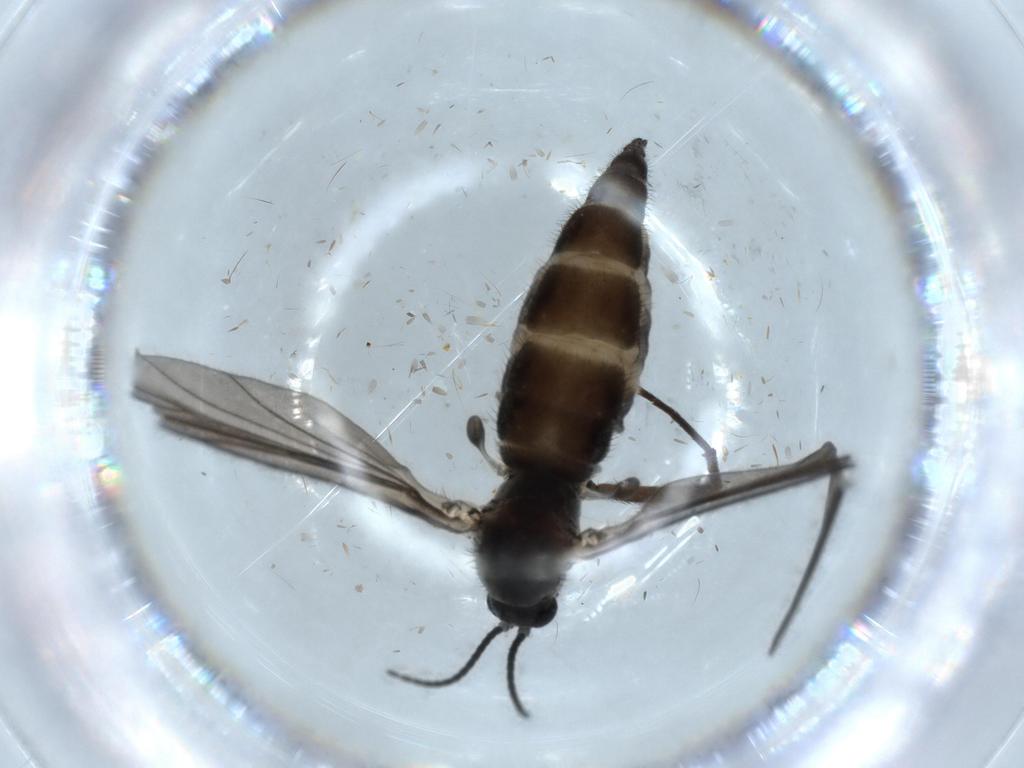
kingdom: Animalia
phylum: Arthropoda
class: Insecta
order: Diptera
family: Sciaridae
